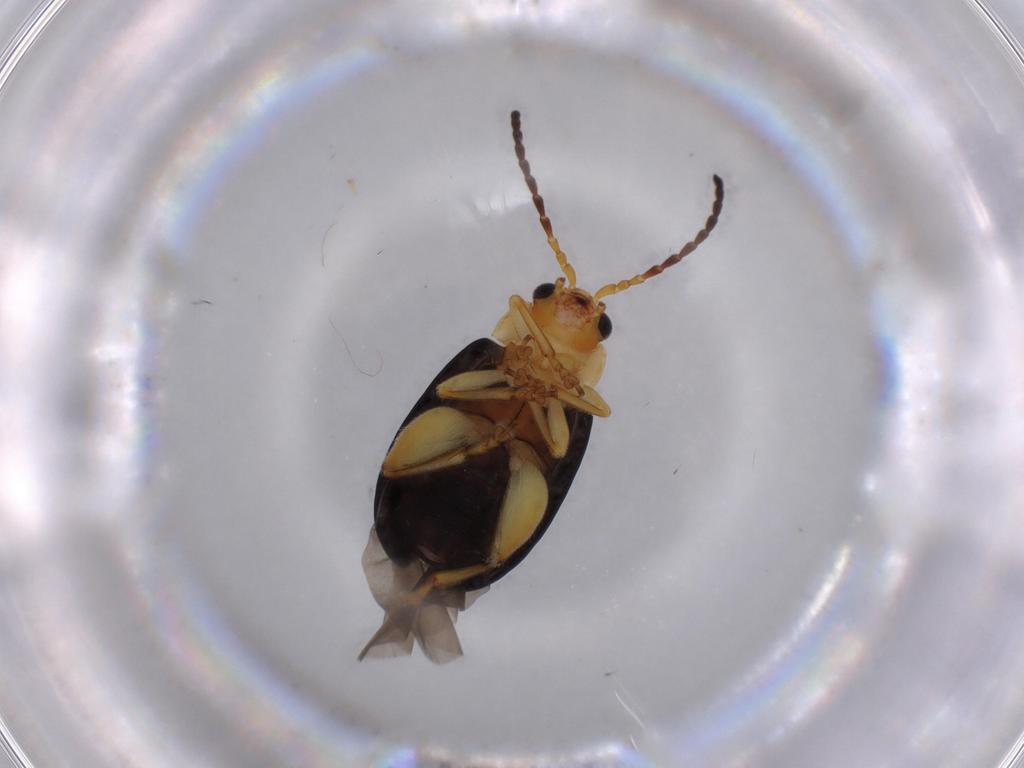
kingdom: Animalia
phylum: Arthropoda
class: Insecta
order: Coleoptera
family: Chrysomelidae
